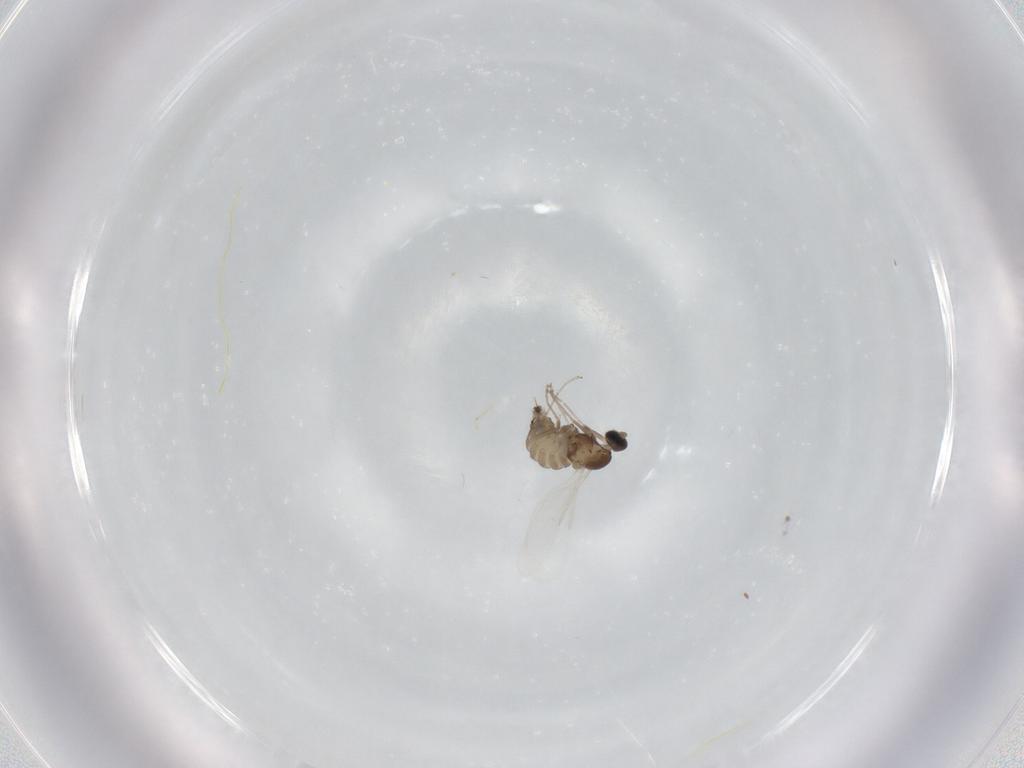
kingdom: Animalia
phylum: Arthropoda
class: Insecta
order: Diptera
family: Cecidomyiidae
